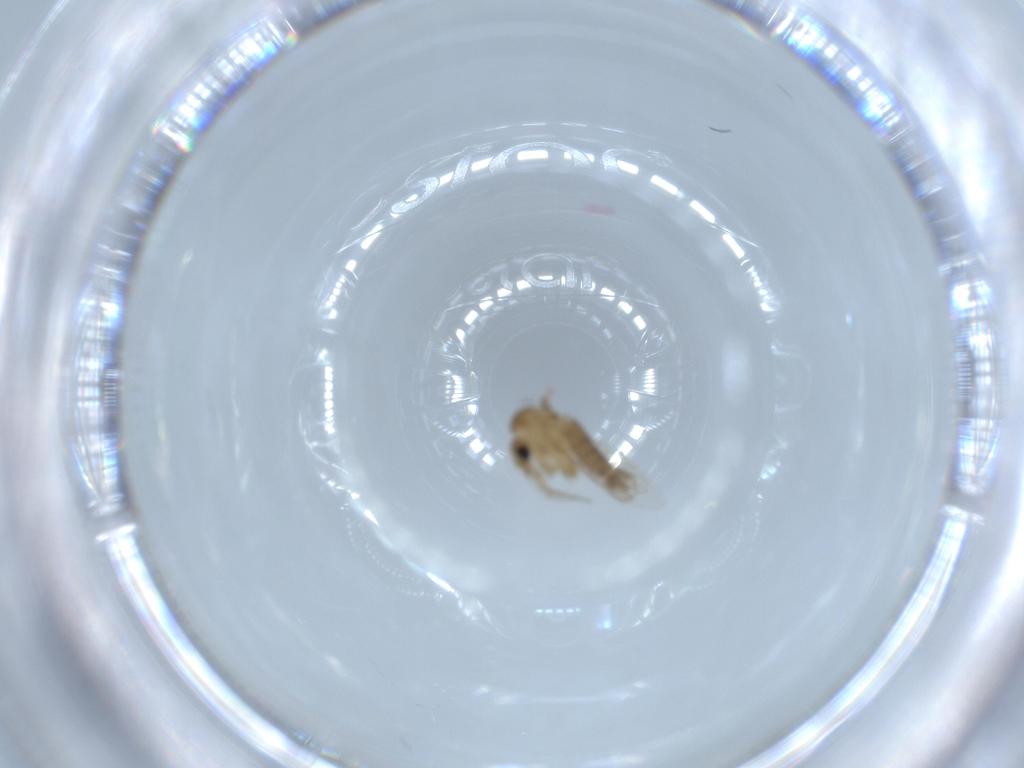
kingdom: Animalia
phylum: Arthropoda
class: Insecta
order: Diptera
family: Psychodidae
